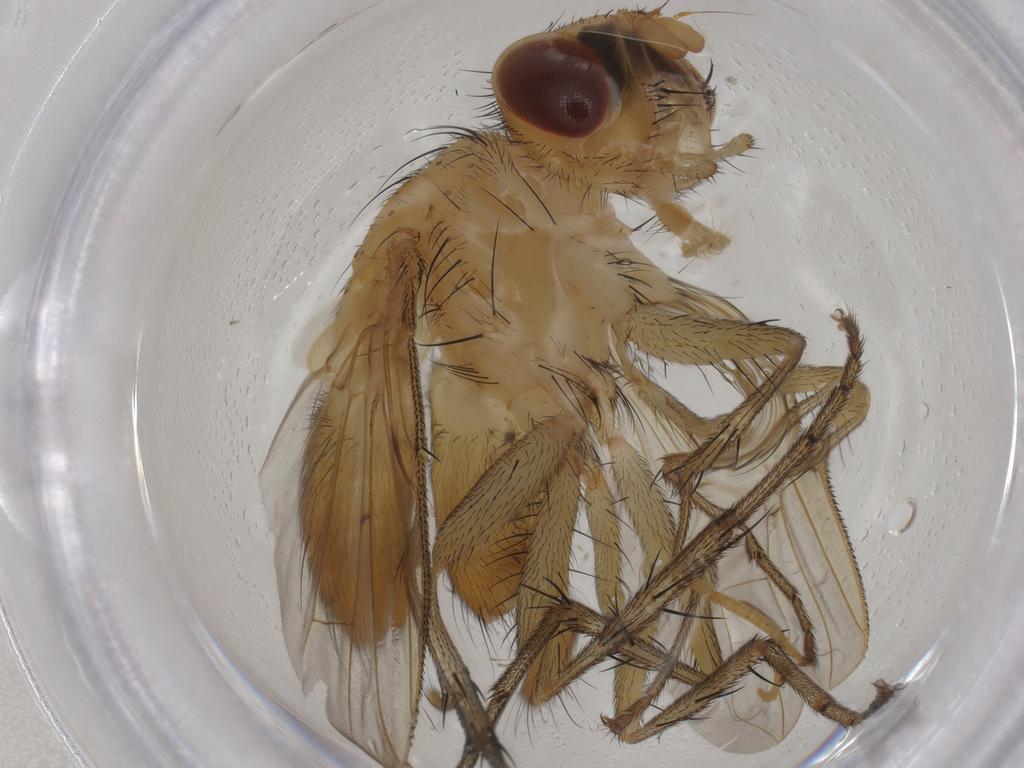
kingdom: Animalia
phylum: Arthropoda
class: Insecta
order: Diptera
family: Tachinidae
